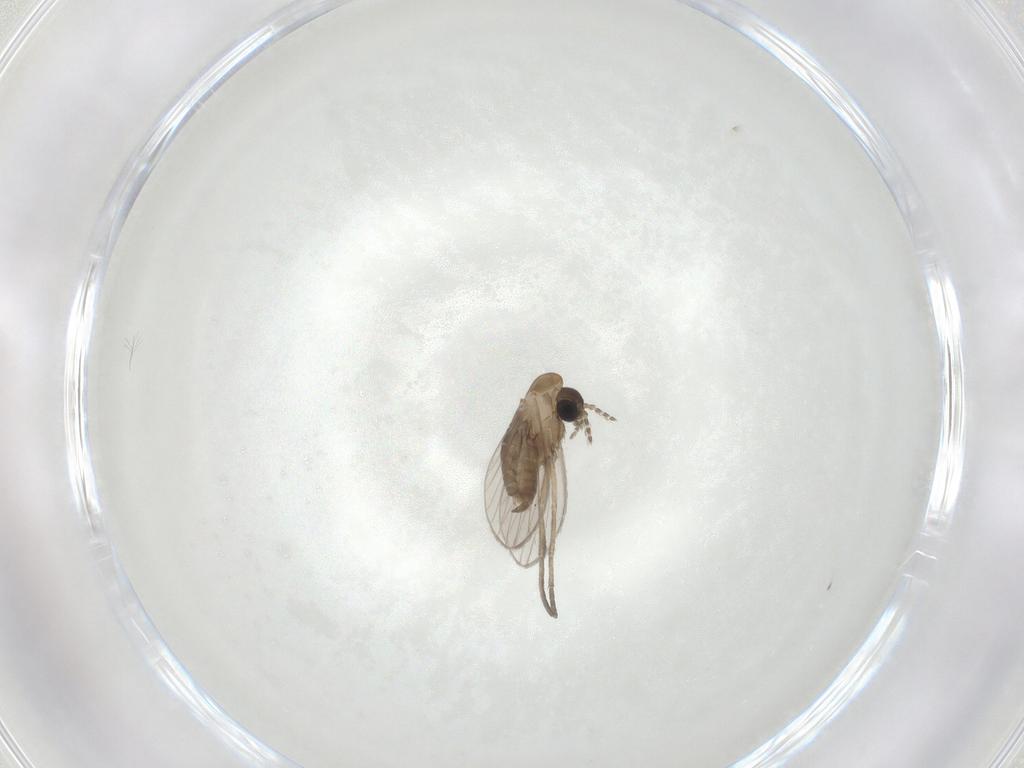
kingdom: Animalia
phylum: Arthropoda
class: Insecta
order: Diptera
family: Psychodidae
